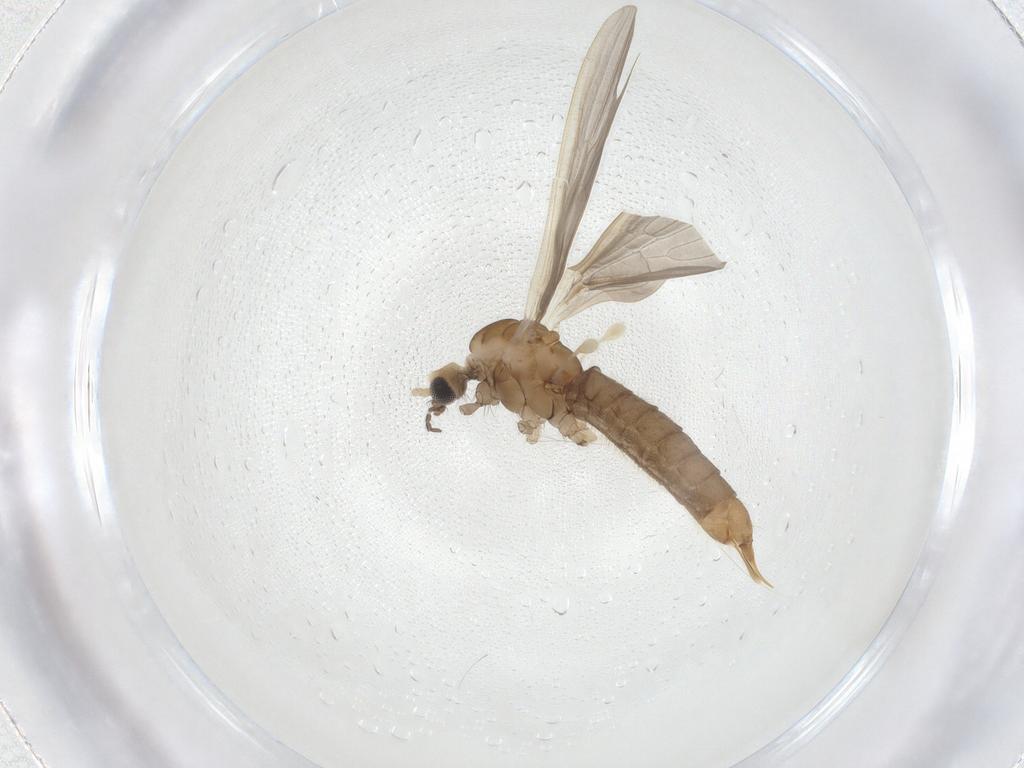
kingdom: Animalia
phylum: Arthropoda
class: Insecta
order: Diptera
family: Limoniidae
